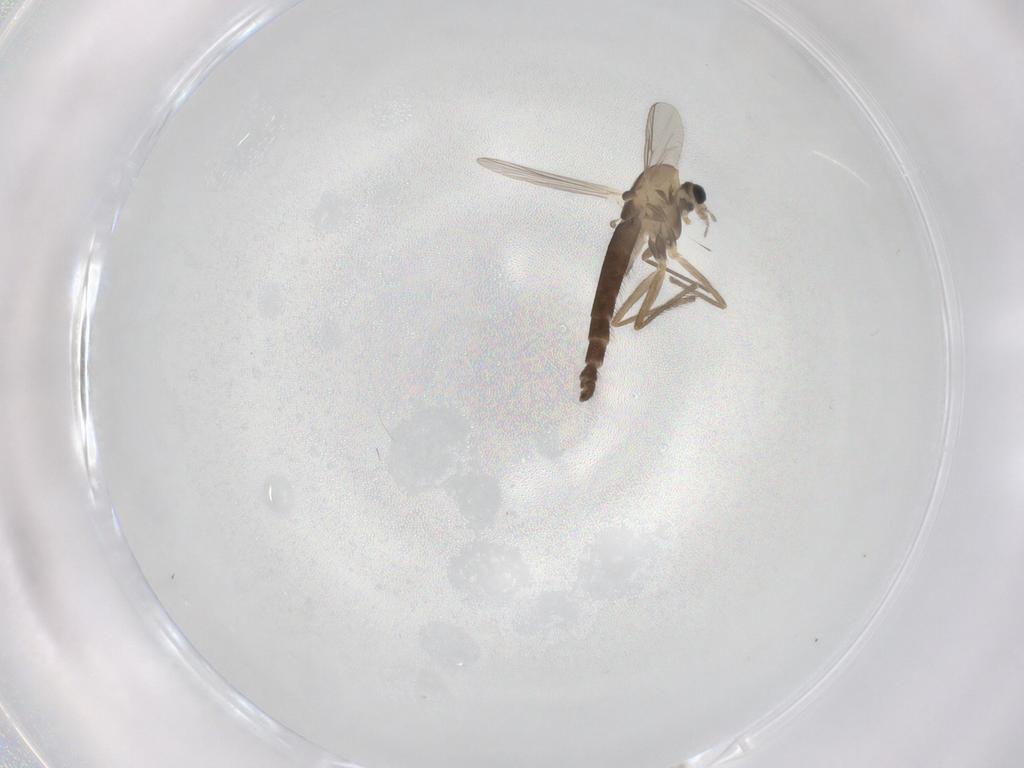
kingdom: Animalia
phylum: Arthropoda
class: Insecta
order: Diptera
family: Chironomidae
